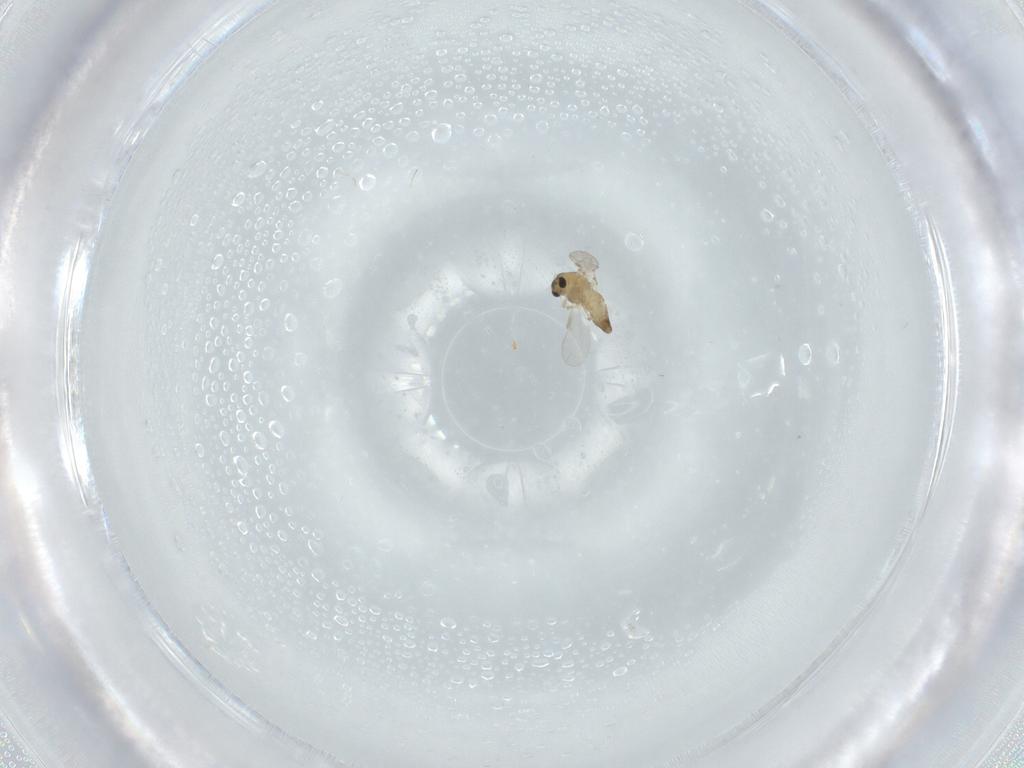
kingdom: Animalia
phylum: Arthropoda
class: Insecta
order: Diptera
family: Chironomidae
